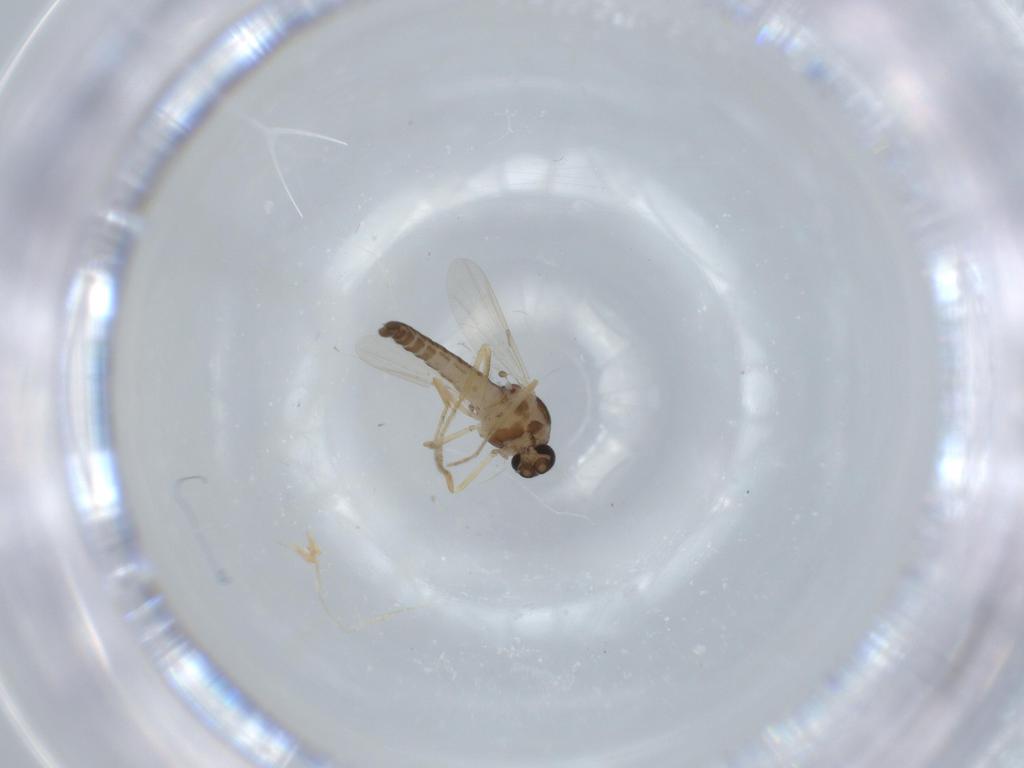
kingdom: Animalia
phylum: Arthropoda
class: Insecta
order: Diptera
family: Ceratopogonidae
